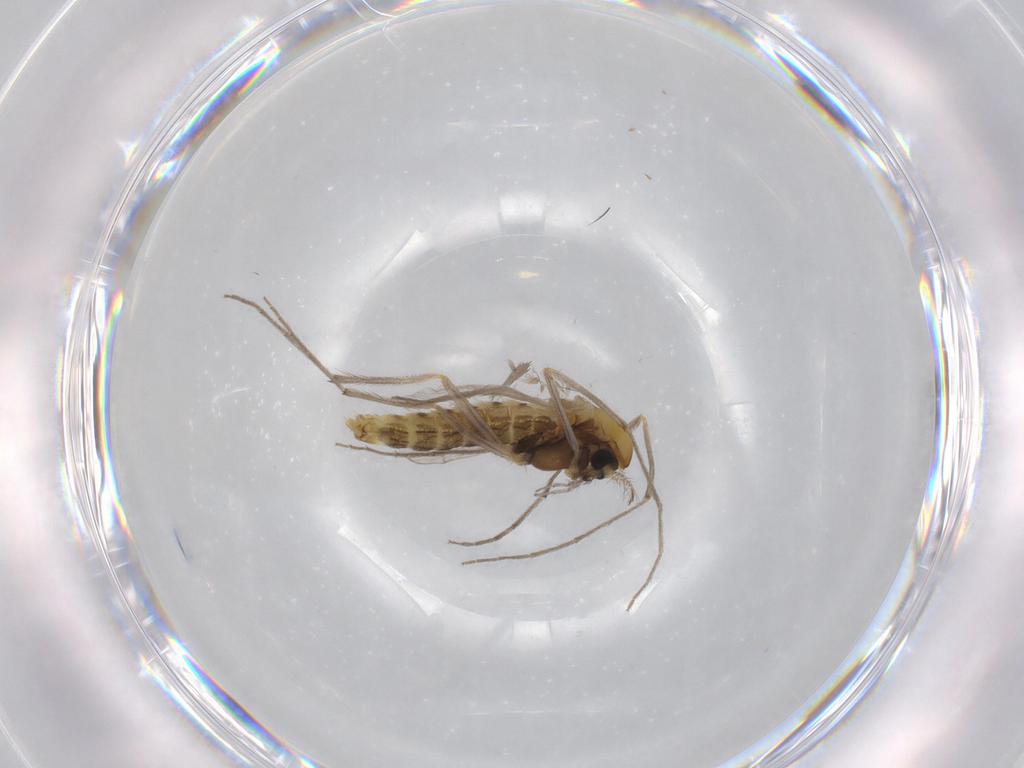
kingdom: Animalia
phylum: Arthropoda
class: Insecta
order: Diptera
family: Chironomidae
